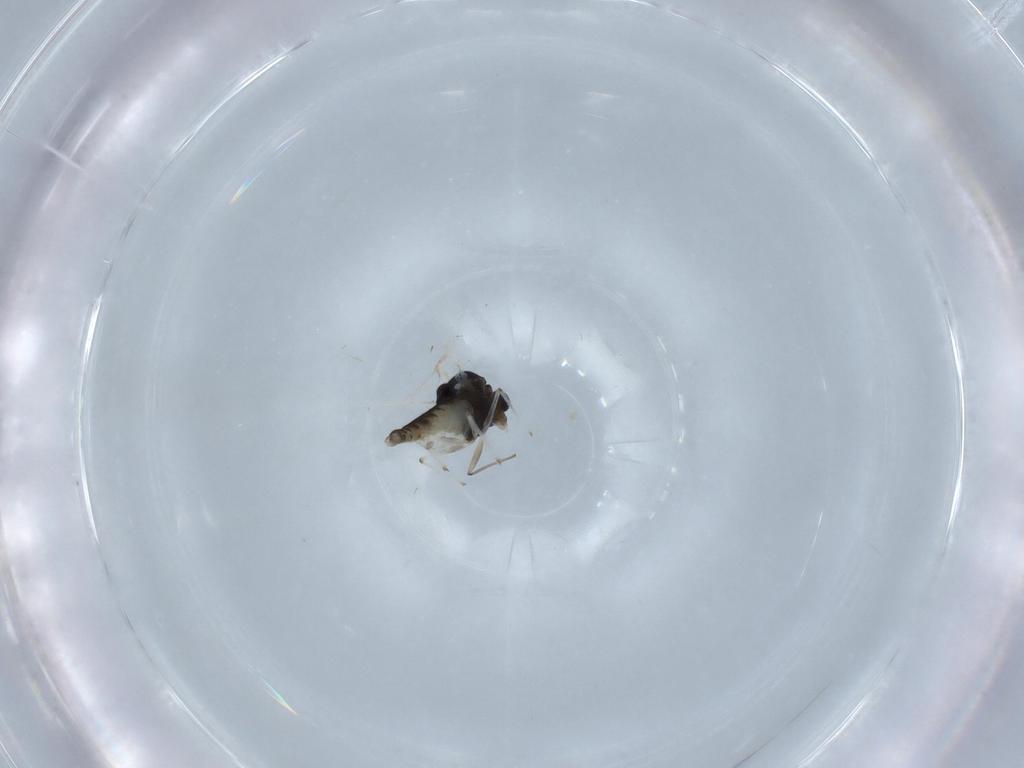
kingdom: Animalia
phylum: Arthropoda
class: Insecta
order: Diptera
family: Chironomidae
